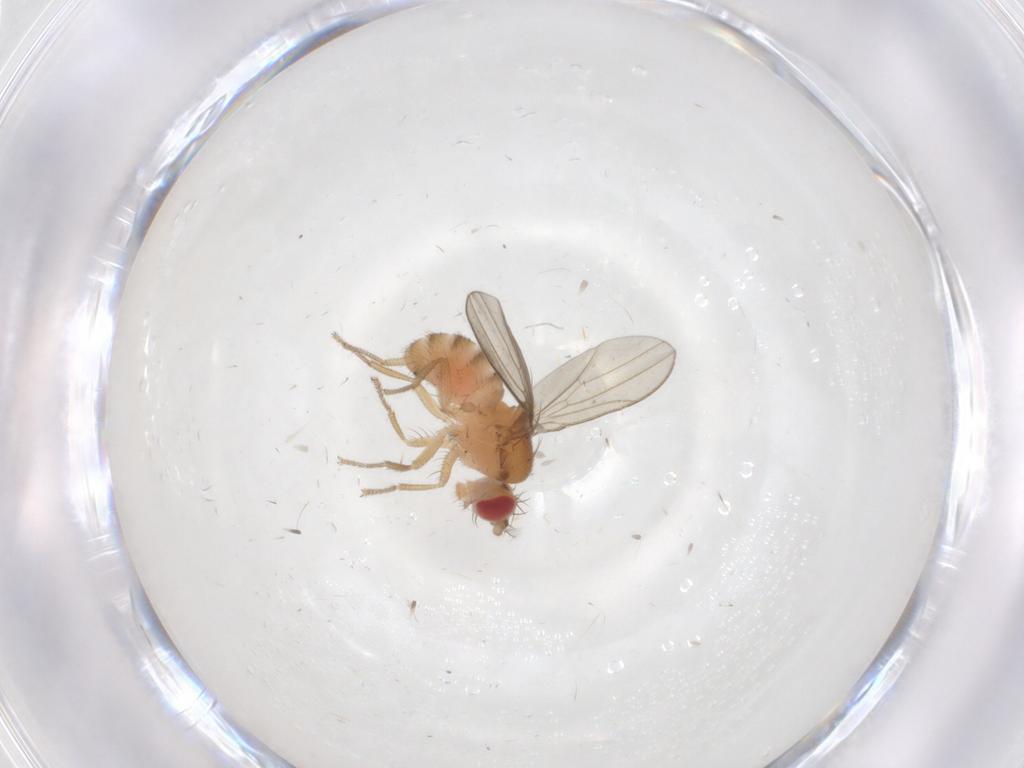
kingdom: Animalia
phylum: Arthropoda
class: Insecta
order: Diptera
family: Drosophilidae
